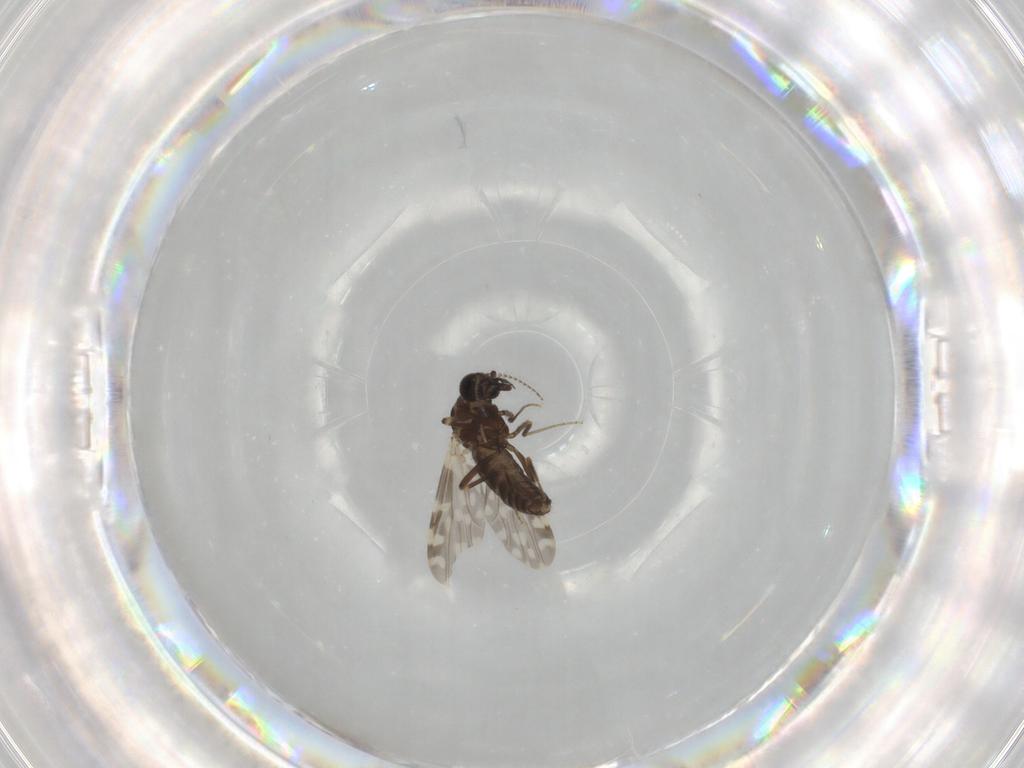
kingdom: Animalia
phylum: Arthropoda
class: Insecta
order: Diptera
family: Ceratopogonidae
